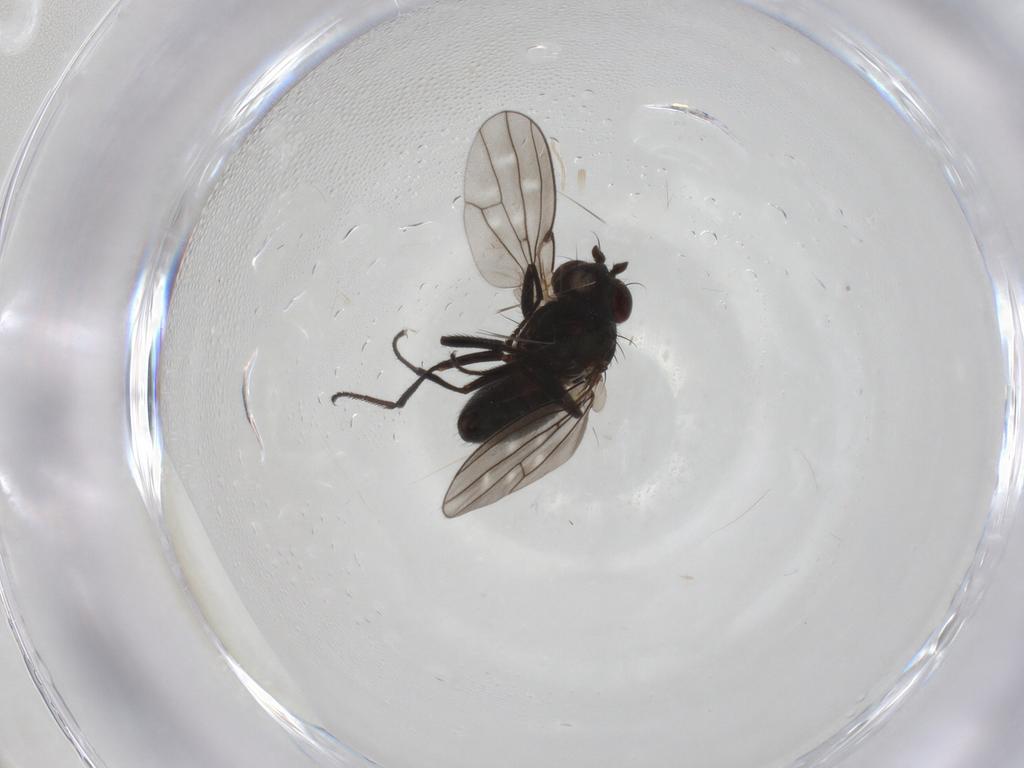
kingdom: Animalia
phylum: Arthropoda
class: Insecta
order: Diptera
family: Ephydridae
